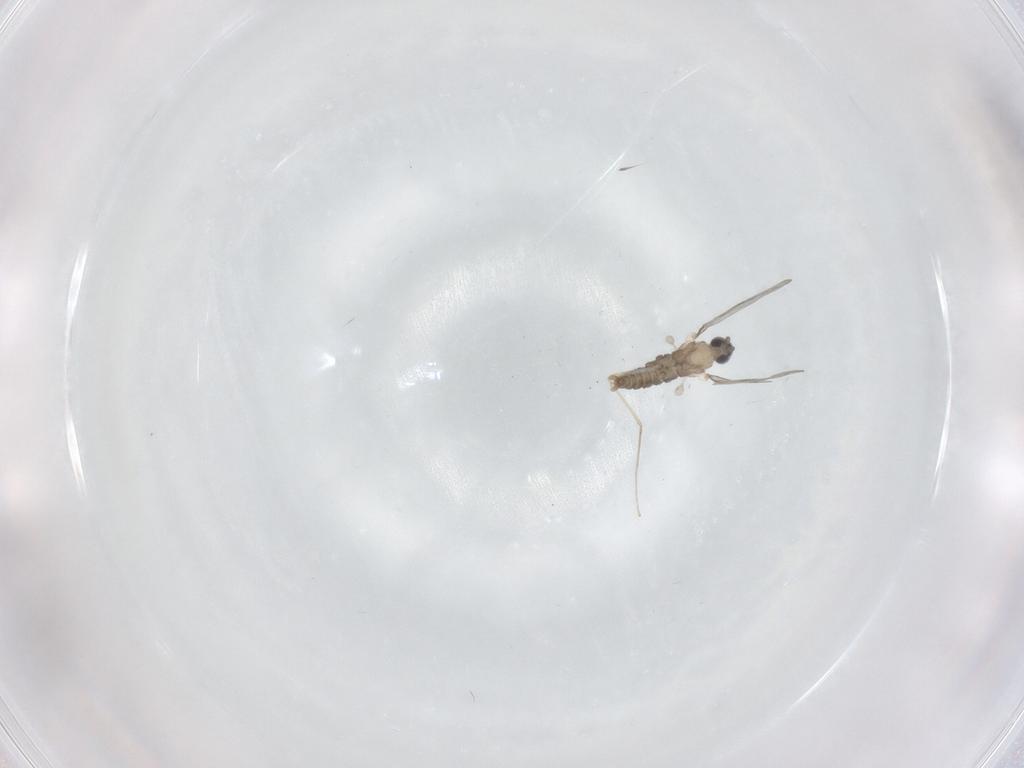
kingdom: Animalia
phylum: Arthropoda
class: Insecta
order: Diptera
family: Cecidomyiidae
